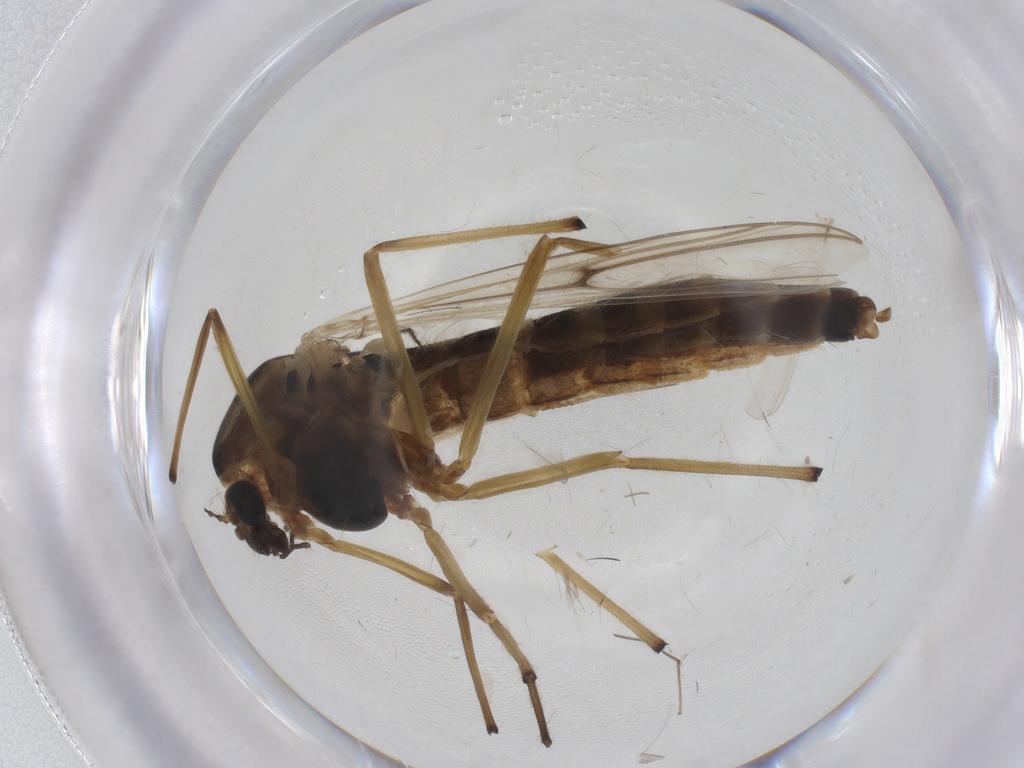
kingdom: Animalia
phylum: Arthropoda
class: Insecta
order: Diptera
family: Chironomidae
